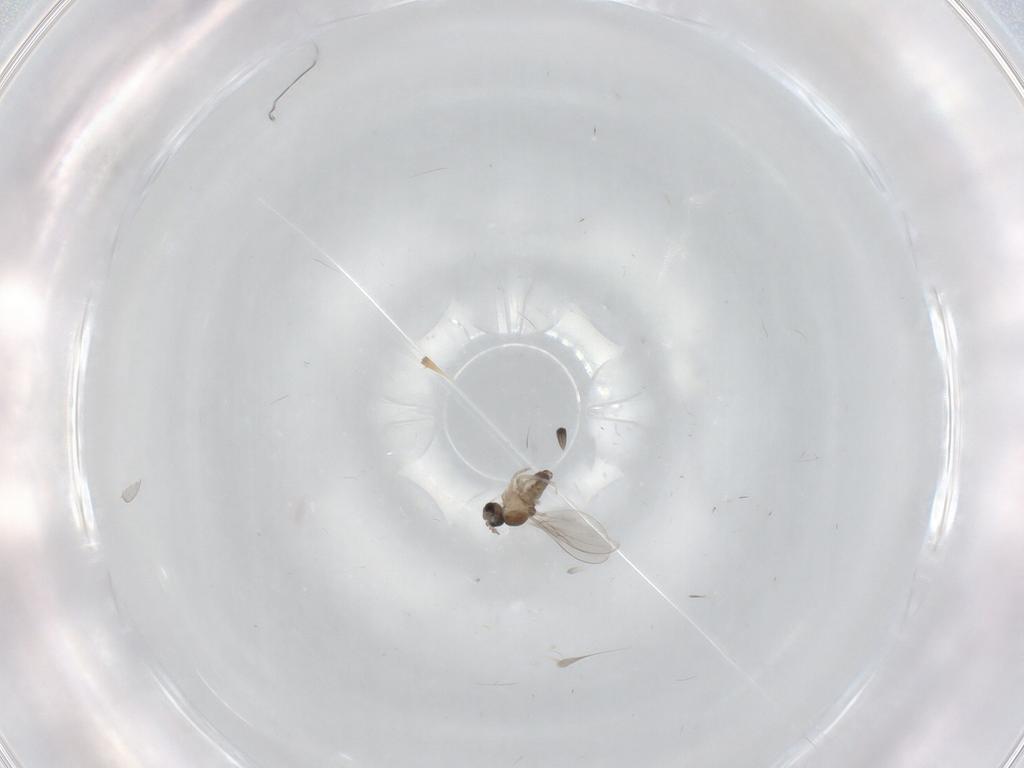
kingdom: Animalia
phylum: Arthropoda
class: Insecta
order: Diptera
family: Cecidomyiidae
